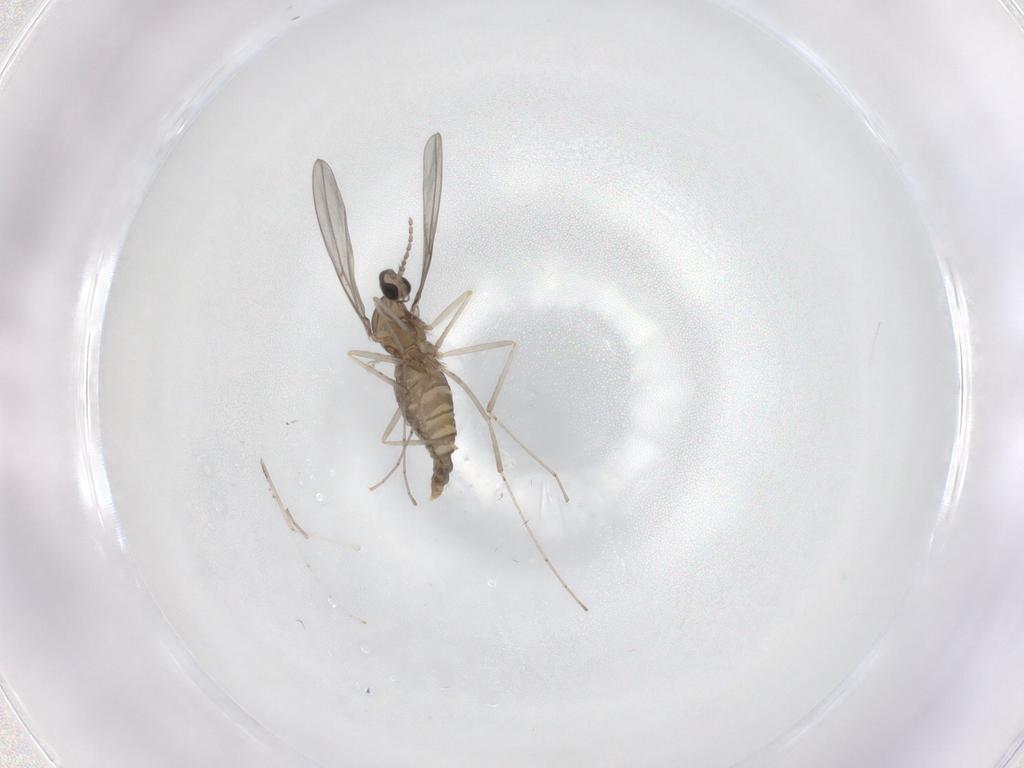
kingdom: Animalia
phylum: Arthropoda
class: Insecta
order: Diptera
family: Cecidomyiidae
